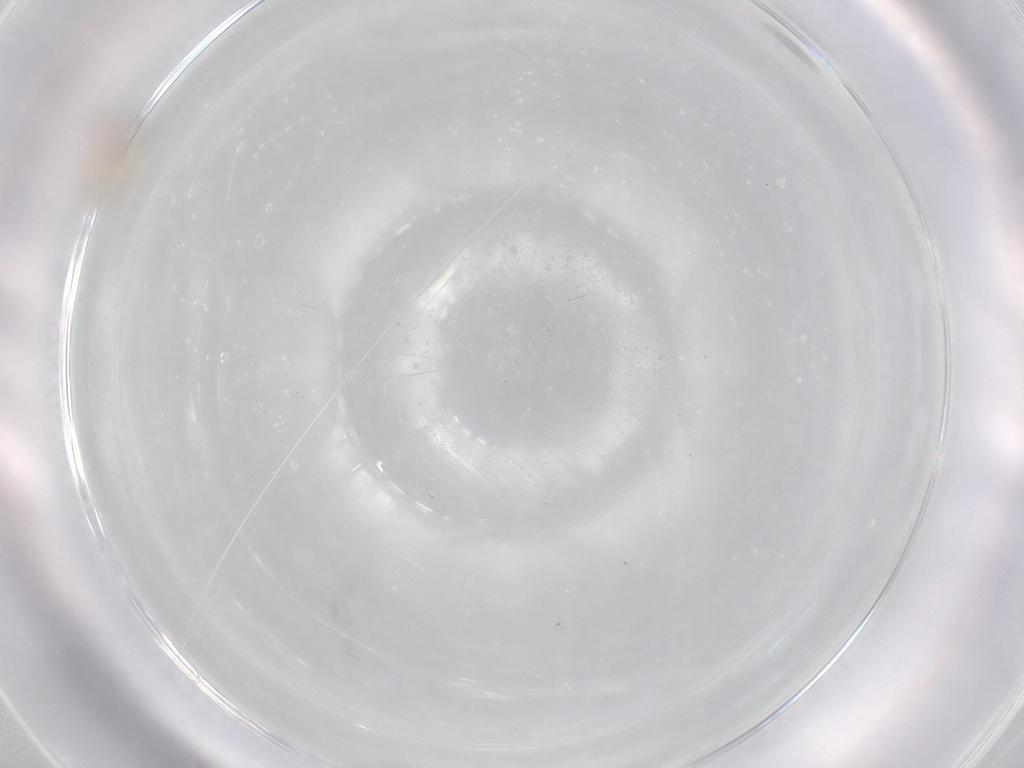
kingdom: Animalia
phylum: Arthropoda
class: Insecta
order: Diptera
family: Cecidomyiidae
